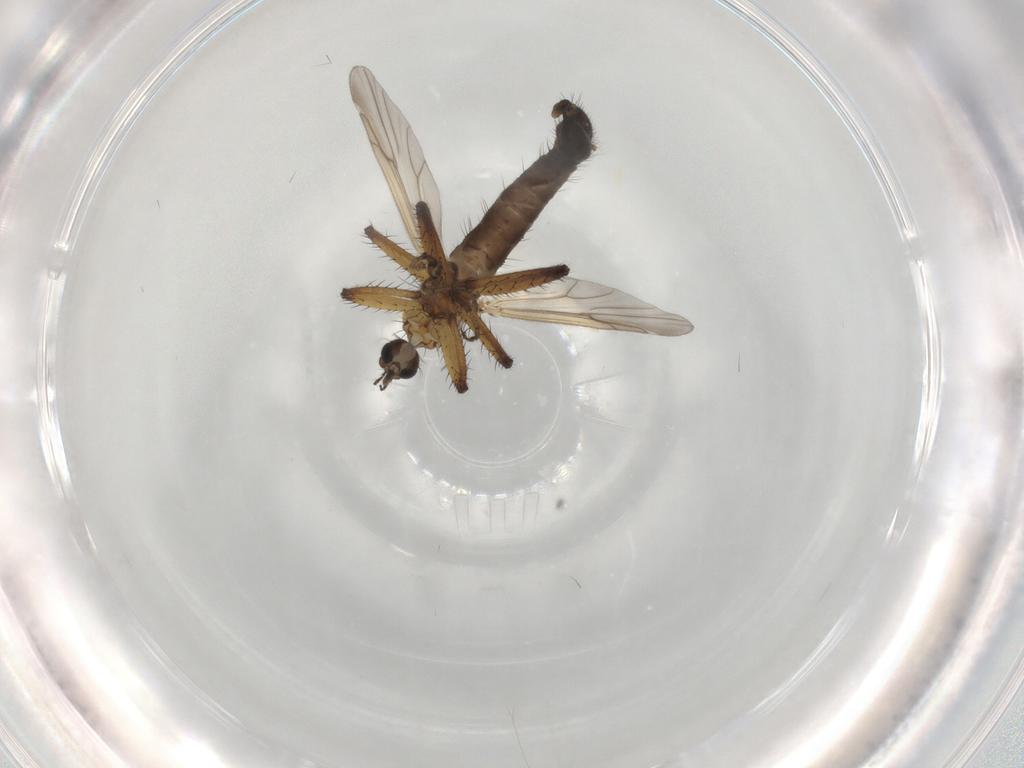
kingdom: Animalia
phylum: Arthropoda
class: Insecta
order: Diptera
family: Ceratopogonidae
